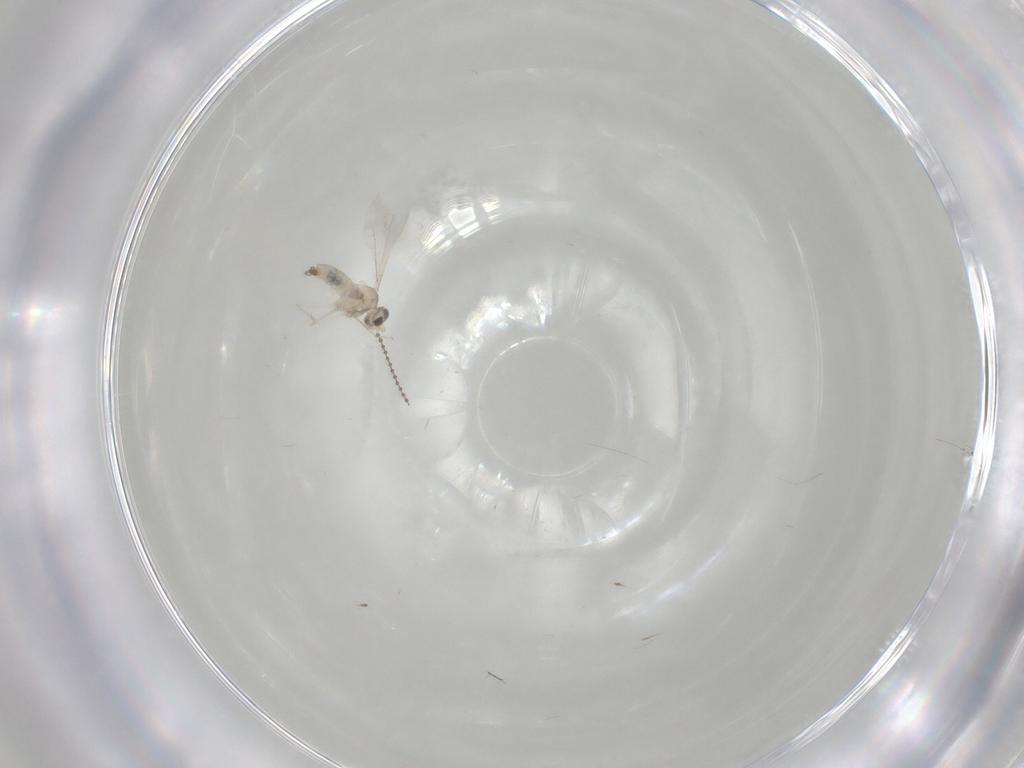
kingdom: Animalia
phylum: Arthropoda
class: Insecta
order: Diptera
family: Cecidomyiidae
